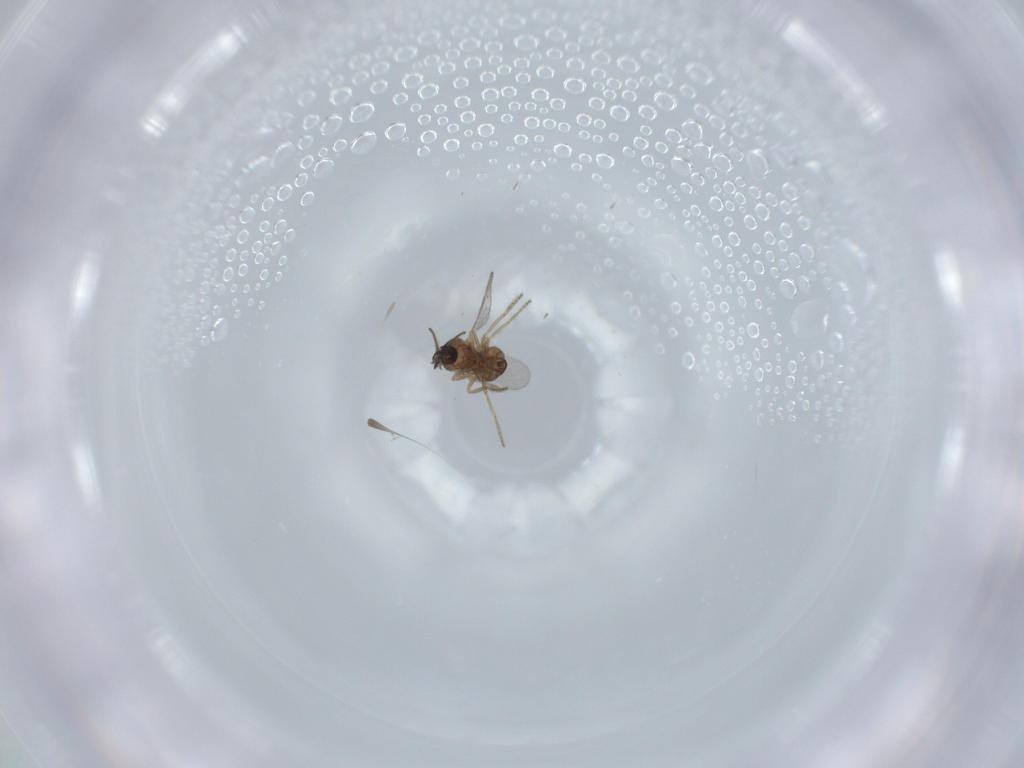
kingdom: Animalia
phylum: Arthropoda
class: Insecta
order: Diptera
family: Ceratopogonidae
